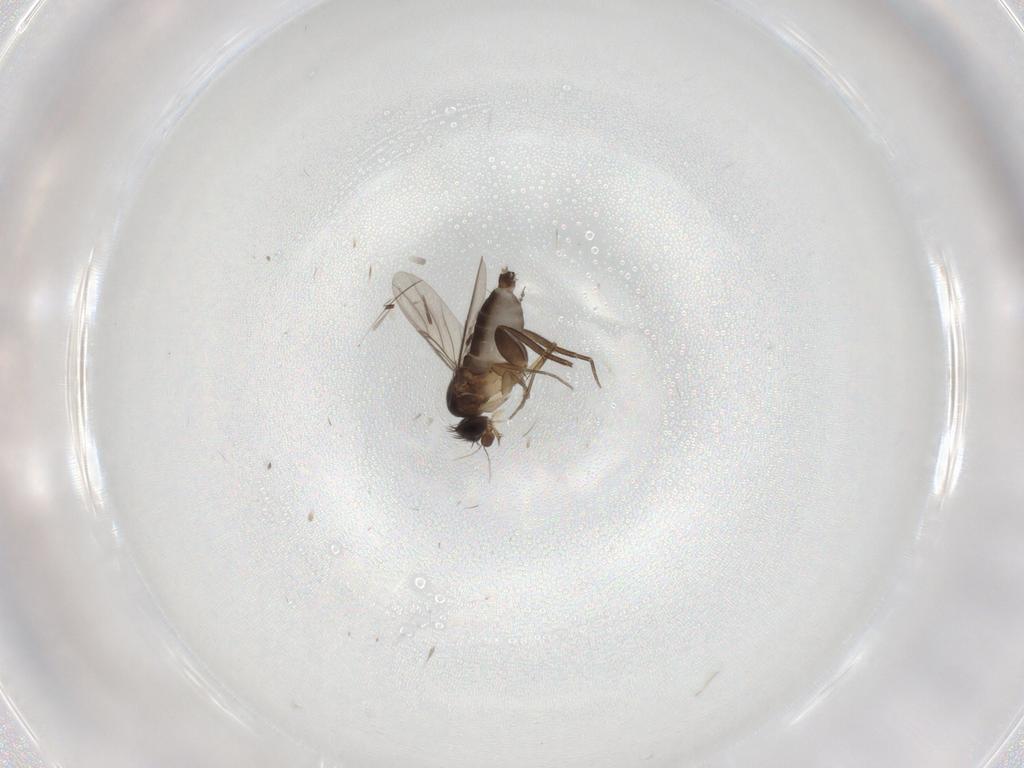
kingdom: Animalia
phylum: Arthropoda
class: Insecta
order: Diptera
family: Cecidomyiidae
